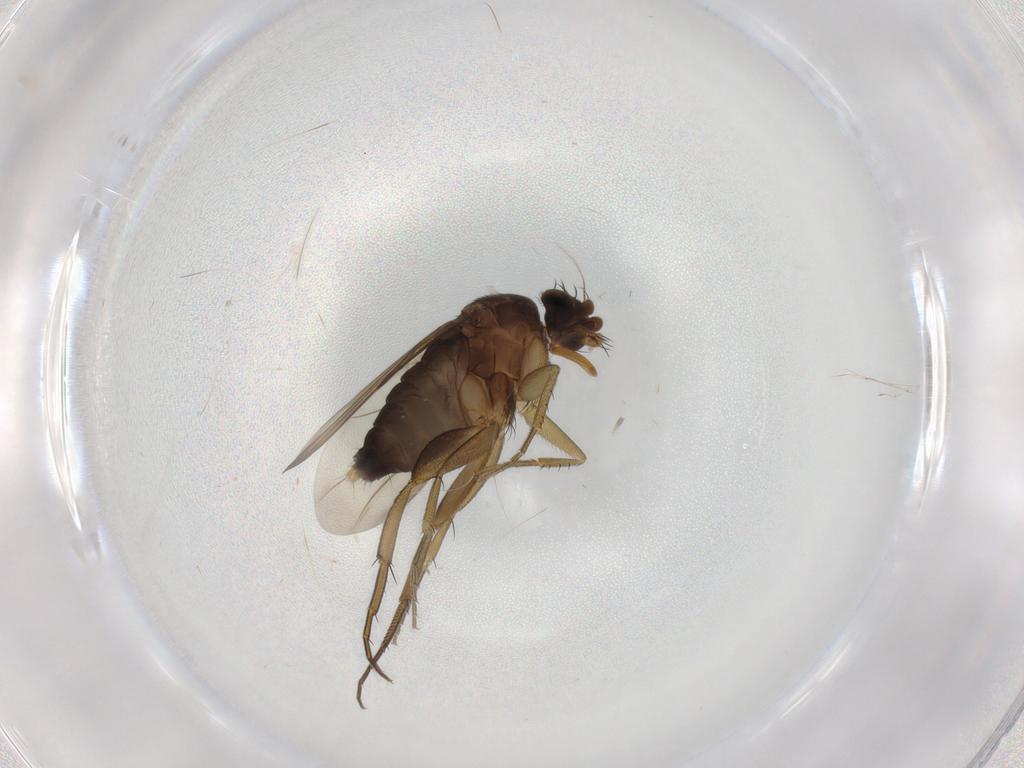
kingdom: Animalia
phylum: Arthropoda
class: Insecta
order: Diptera
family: Phoridae
